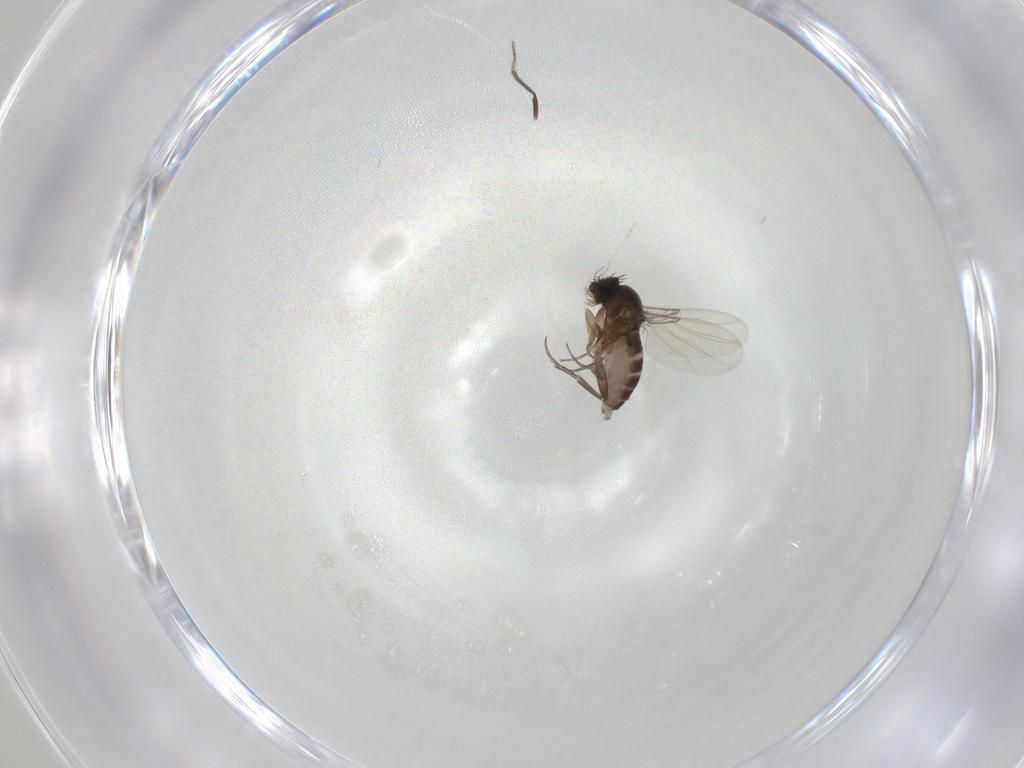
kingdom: Animalia
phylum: Arthropoda
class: Insecta
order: Diptera
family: Phoridae
